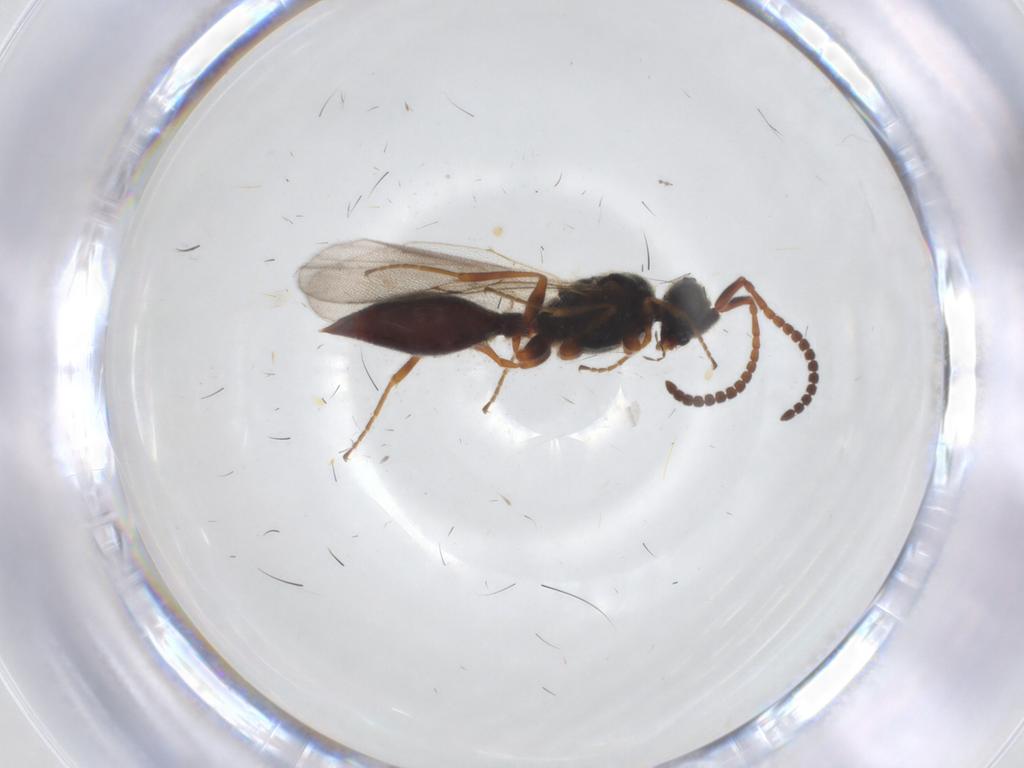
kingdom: Animalia
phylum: Arthropoda
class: Insecta
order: Hymenoptera
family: Diapriidae
